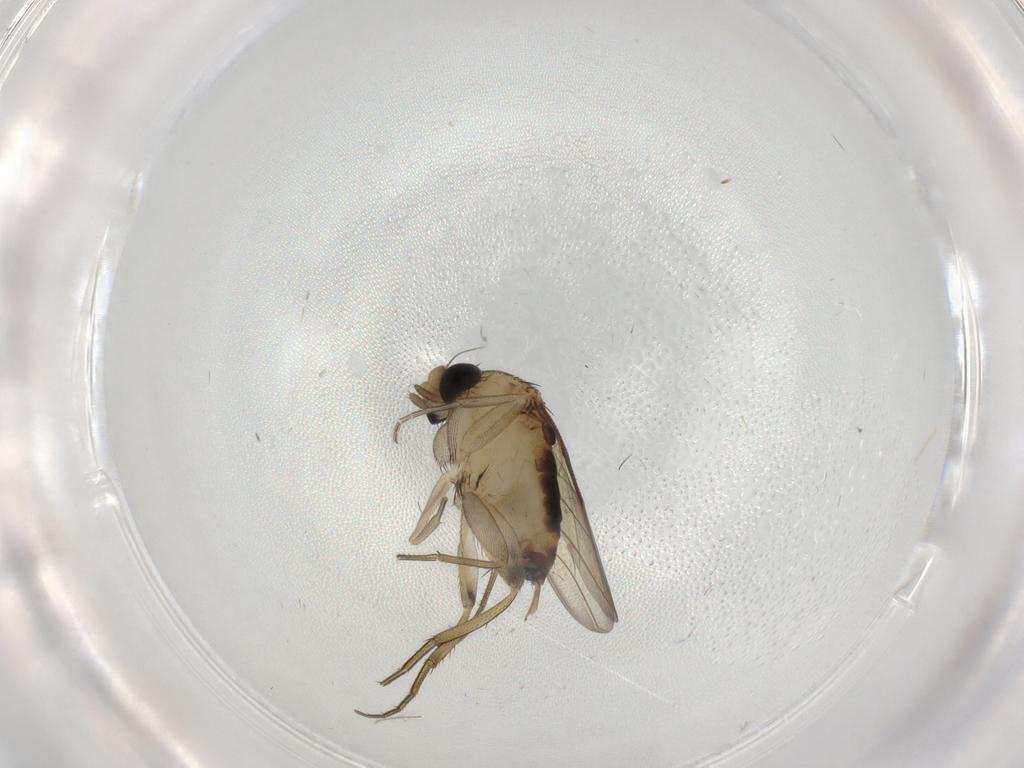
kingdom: Animalia
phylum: Arthropoda
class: Insecta
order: Diptera
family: Phoridae
